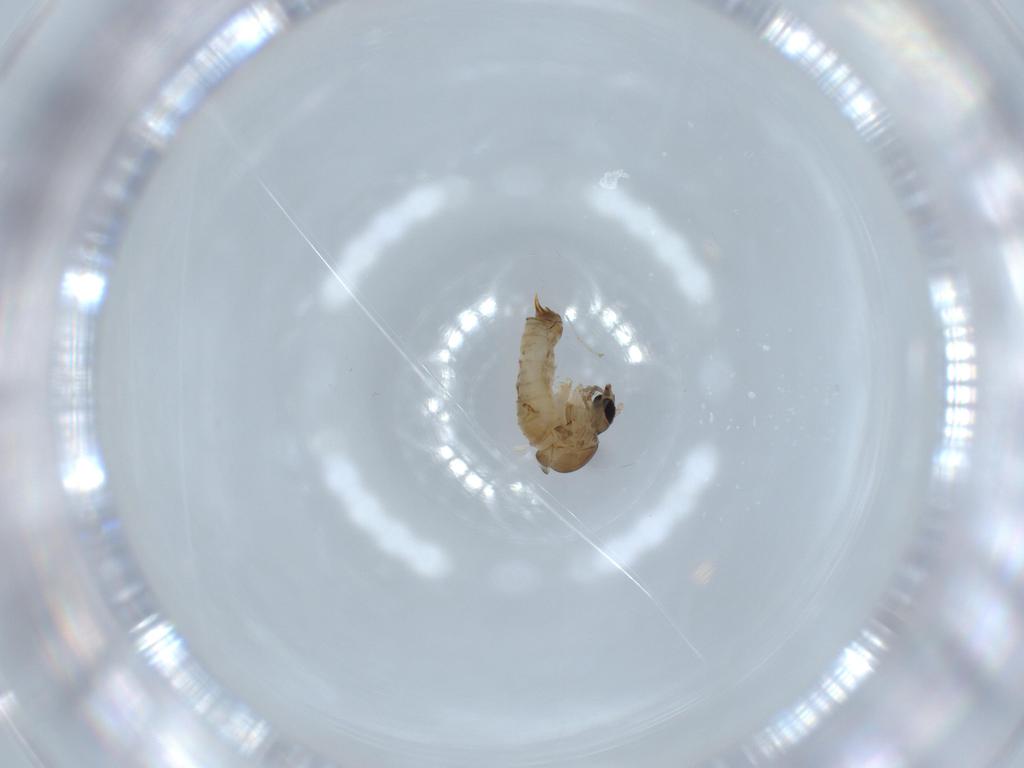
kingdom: Animalia
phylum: Arthropoda
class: Insecta
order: Diptera
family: Psychodidae
